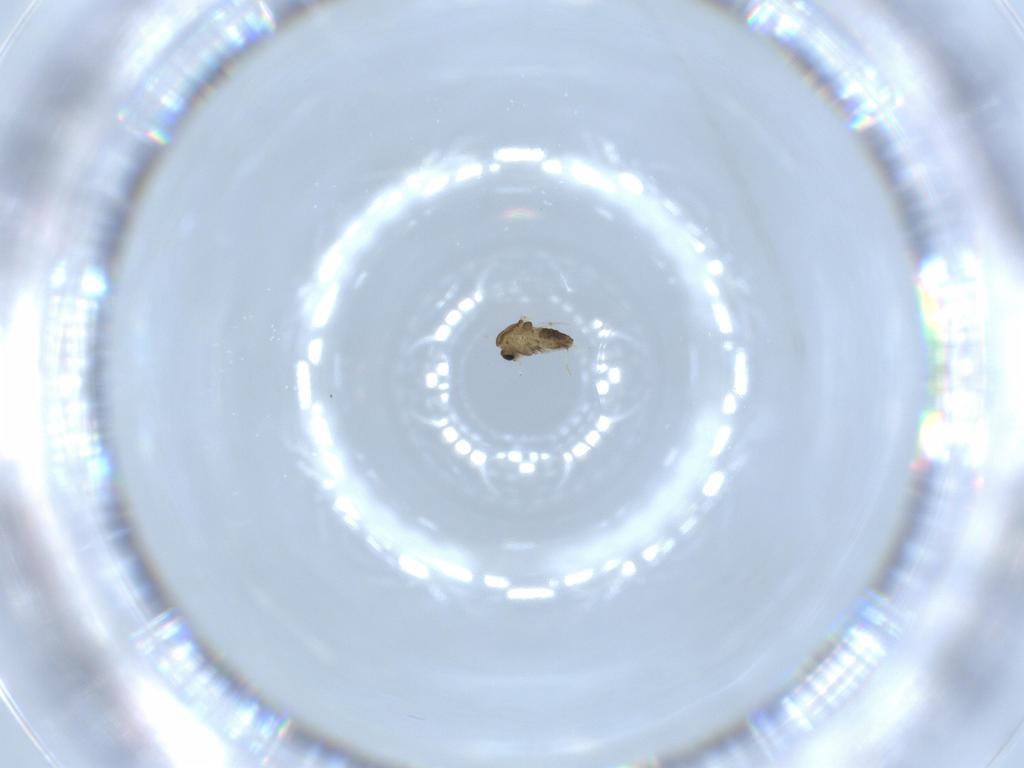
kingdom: Animalia
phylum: Arthropoda
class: Insecta
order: Diptera
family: Chironomidae
